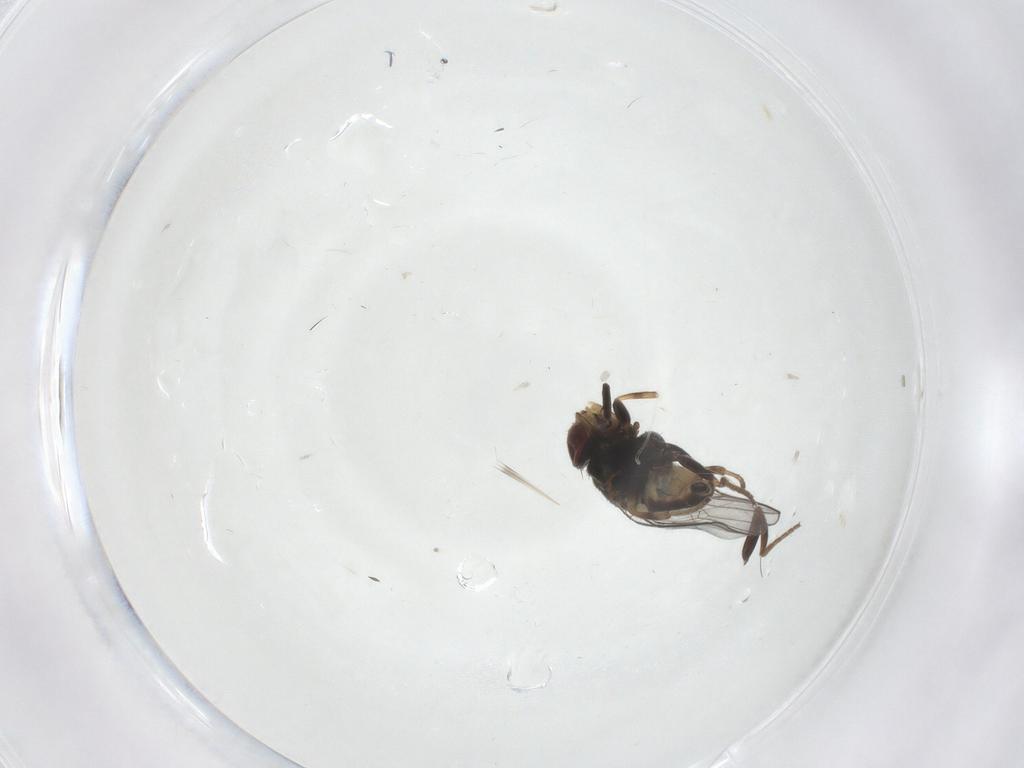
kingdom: Animalia
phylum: Arthropoda
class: Insecta
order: Diptera
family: Chloropidae
